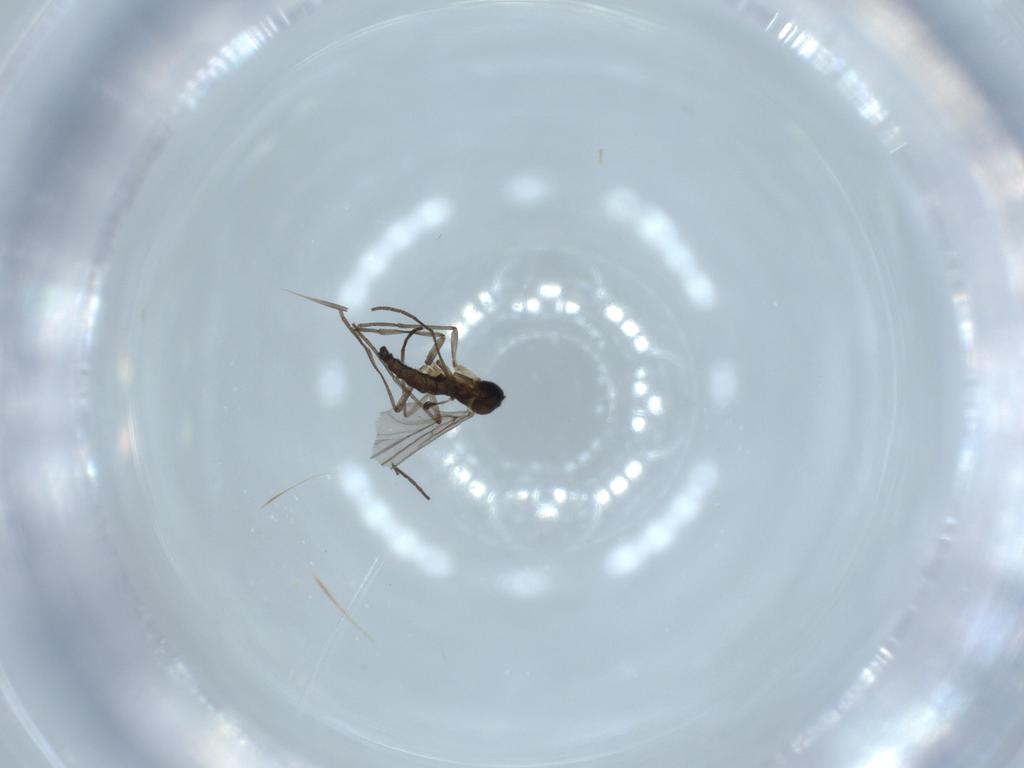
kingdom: Animalia
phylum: Arthropoda
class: Insecta
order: Diptera
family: Sciaridae
